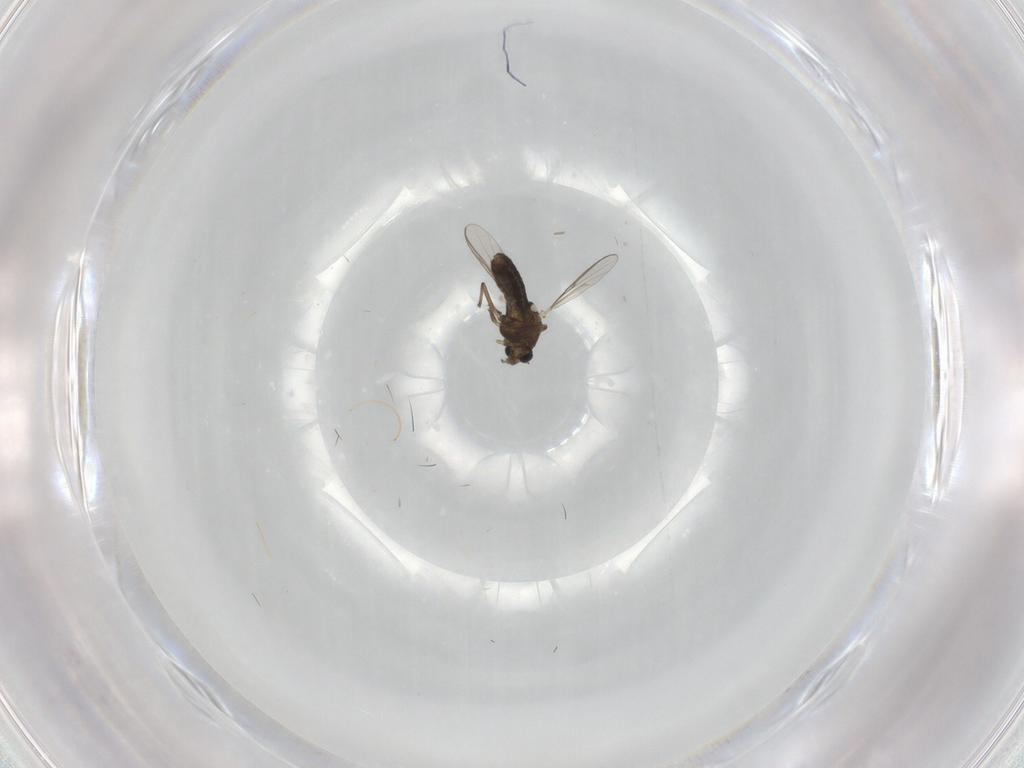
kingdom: Animalia
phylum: Arthropoda
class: Insecta
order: Diptera
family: Chironomidae
